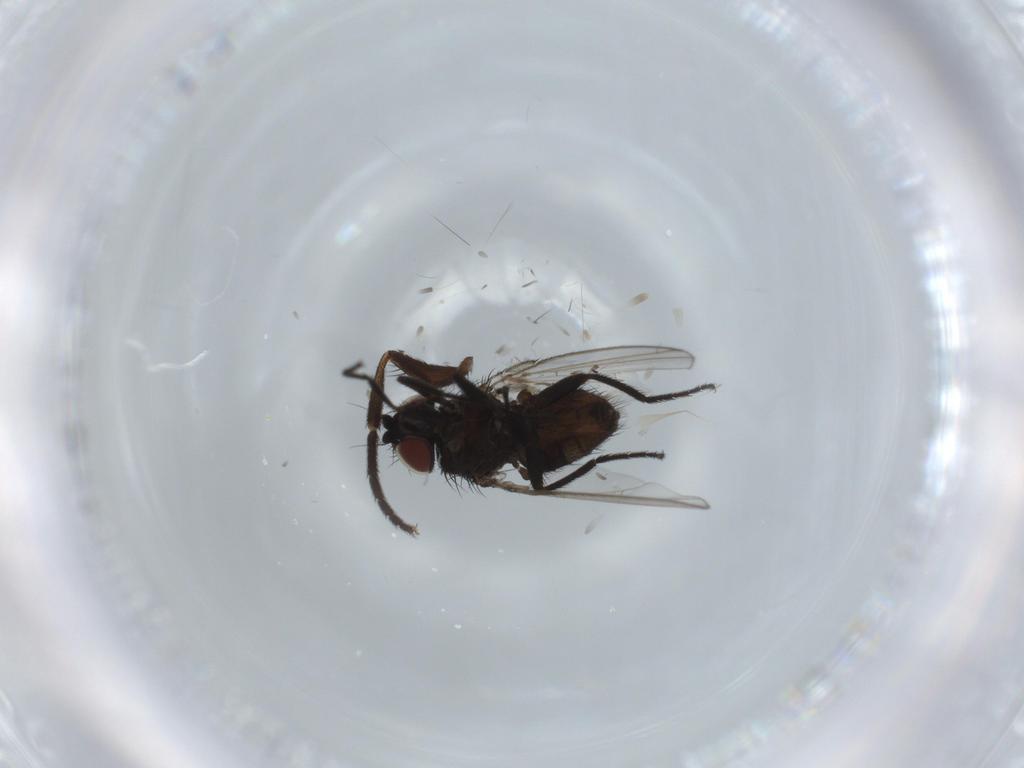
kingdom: Animalia
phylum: Arthropoda
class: Insecta
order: Diptera
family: Milichiidae
